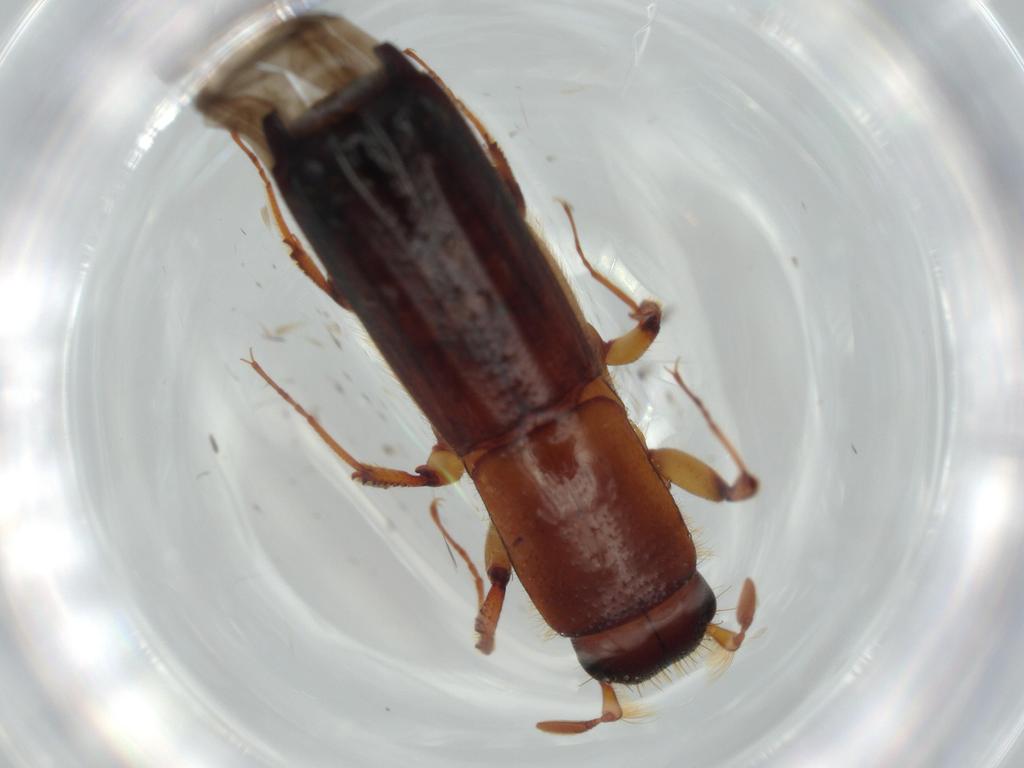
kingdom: Animalia
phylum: Arthropoda
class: Insecta
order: Coleoptera
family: Curculionidae
